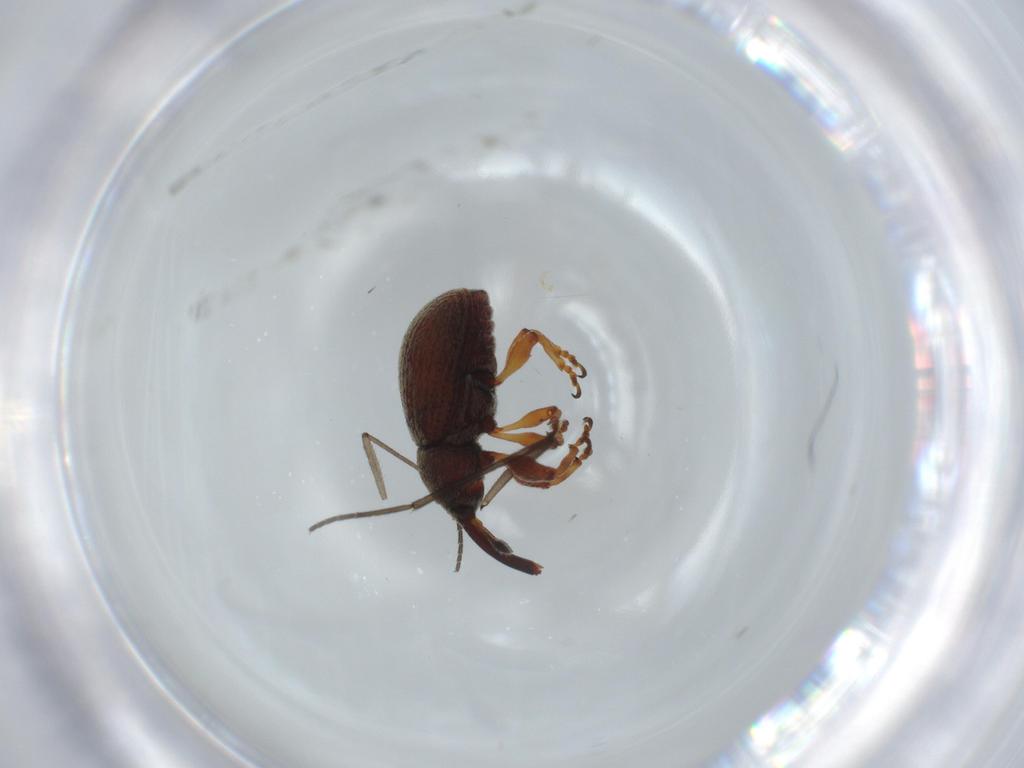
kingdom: Animalia
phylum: Arthropoda
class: Insecta
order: Coleoptera
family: Curculionidae
